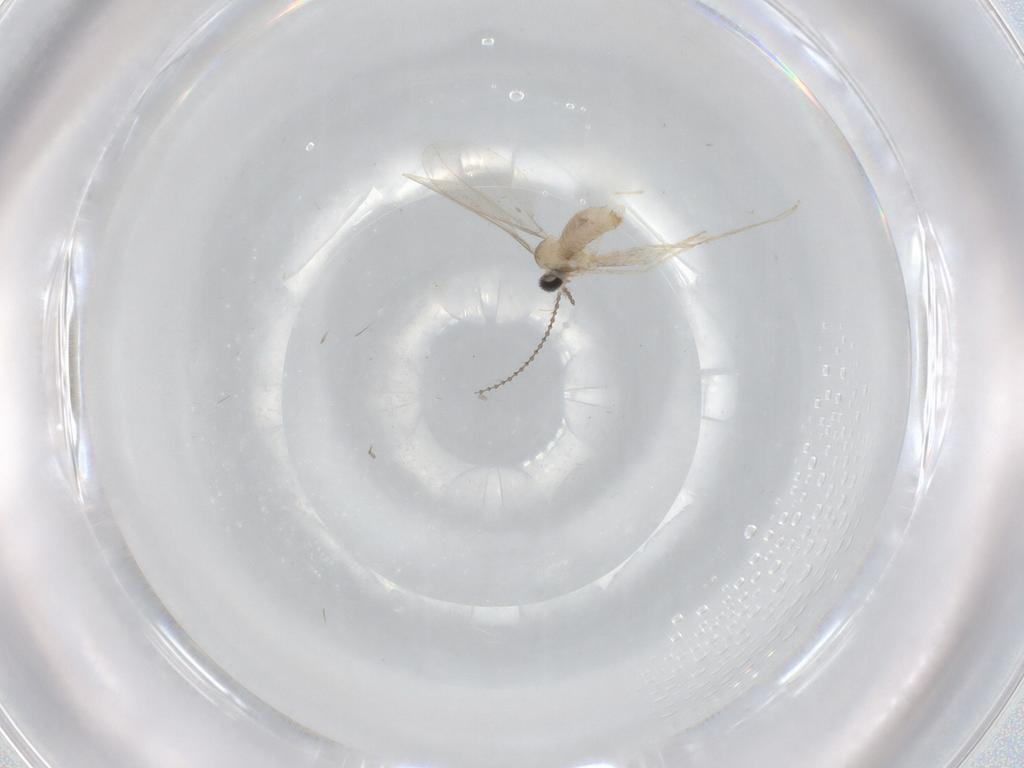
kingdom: Animalia
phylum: Arthropoda
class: Insecta
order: Diptera
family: Cecidomyiidae
